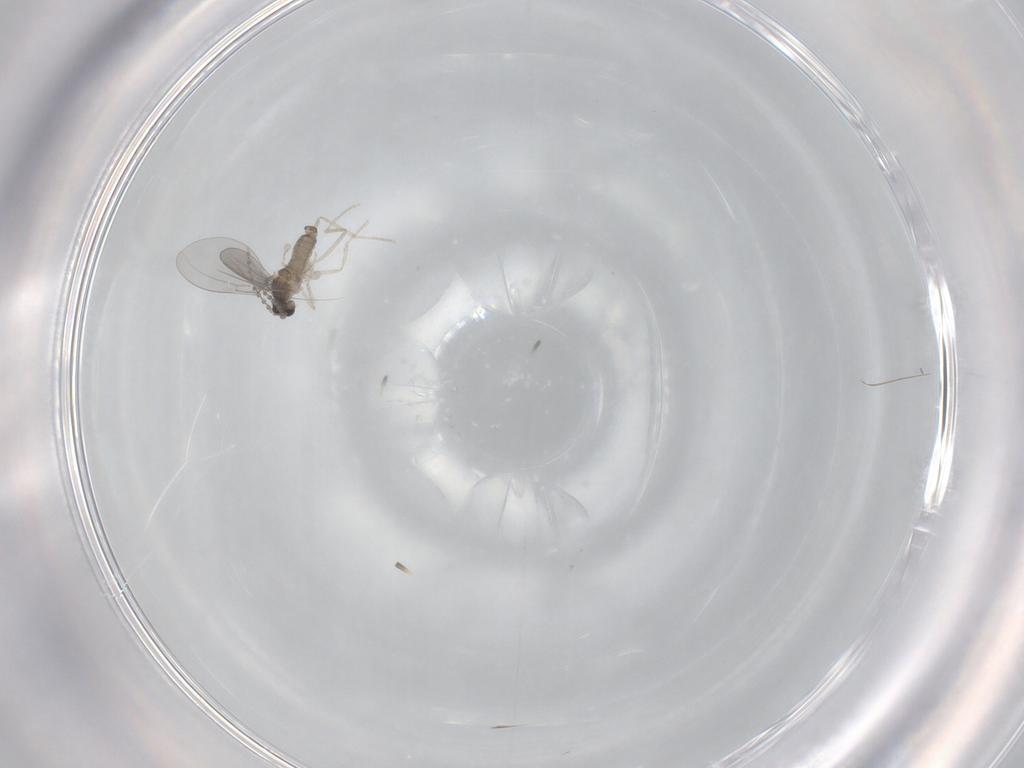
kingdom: Animalia
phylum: Arthropoda
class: Insecta
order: Diptera
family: Cecidomyiidae
